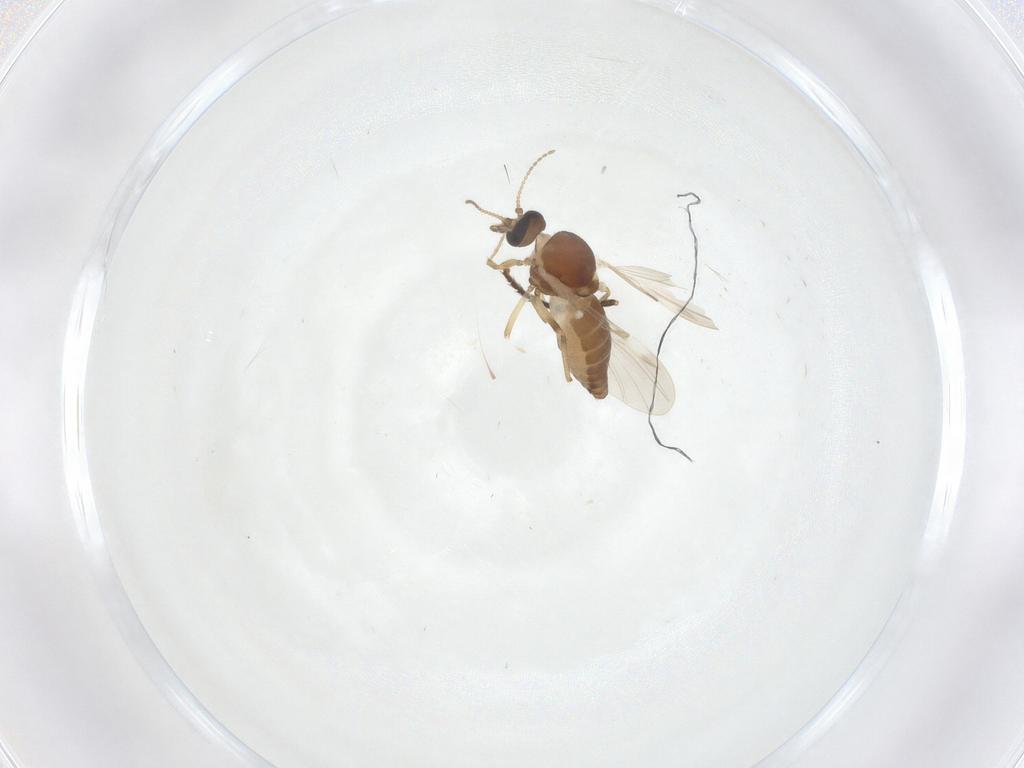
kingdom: Animalia
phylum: Arthropoda
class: Insecta
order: Diptera
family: Ceratopogonidae
